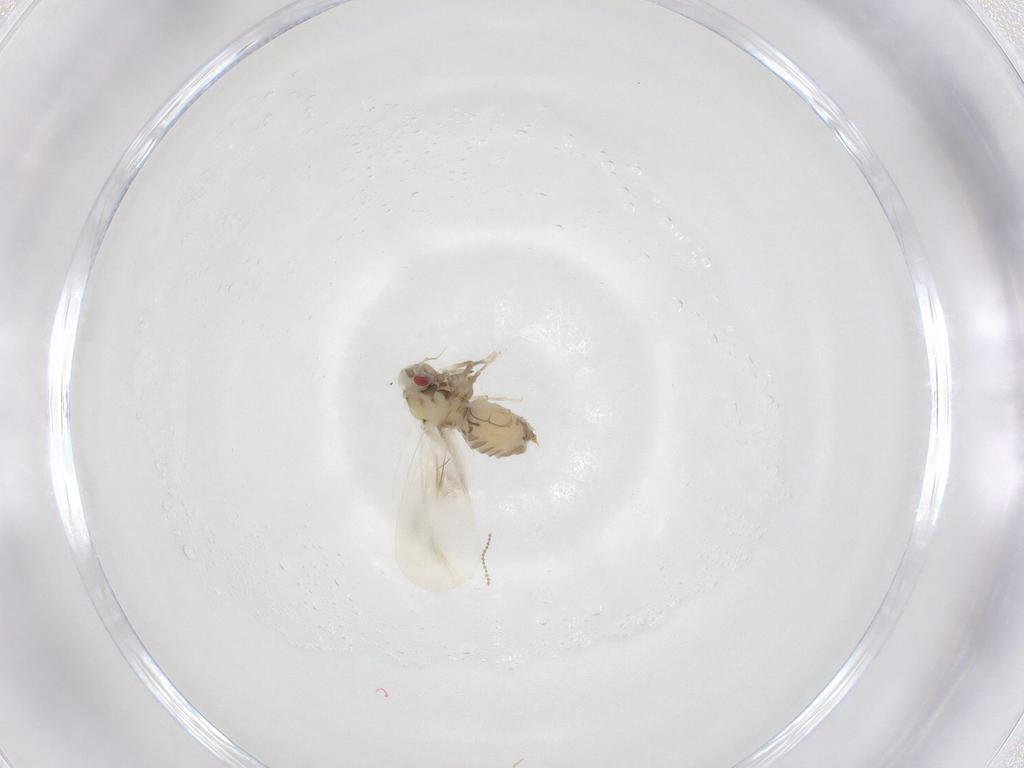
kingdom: Animalia
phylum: Arthropoda
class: Insecta
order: Hemiptera
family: Aleyrodidae
